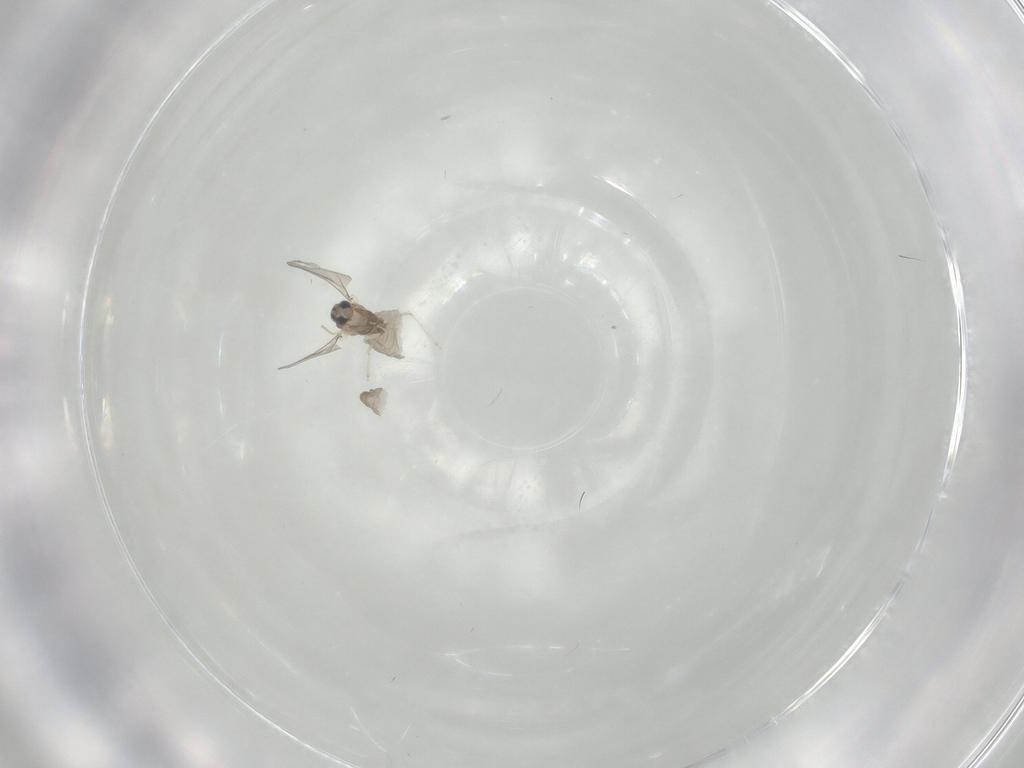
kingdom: Animalia
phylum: Arthropoda
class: Insecta
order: Diptera
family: Cecidomyiidae
